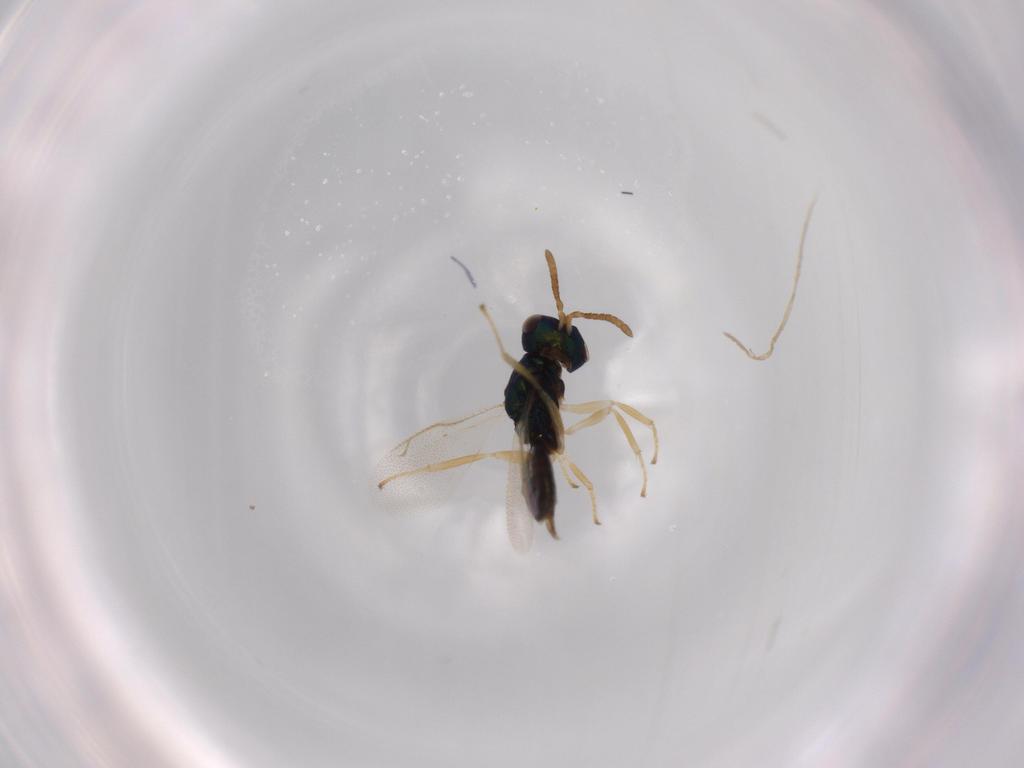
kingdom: Animalia
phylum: Arthropoda
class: Insecta
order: Hymenoptera
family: Pteromalidae
